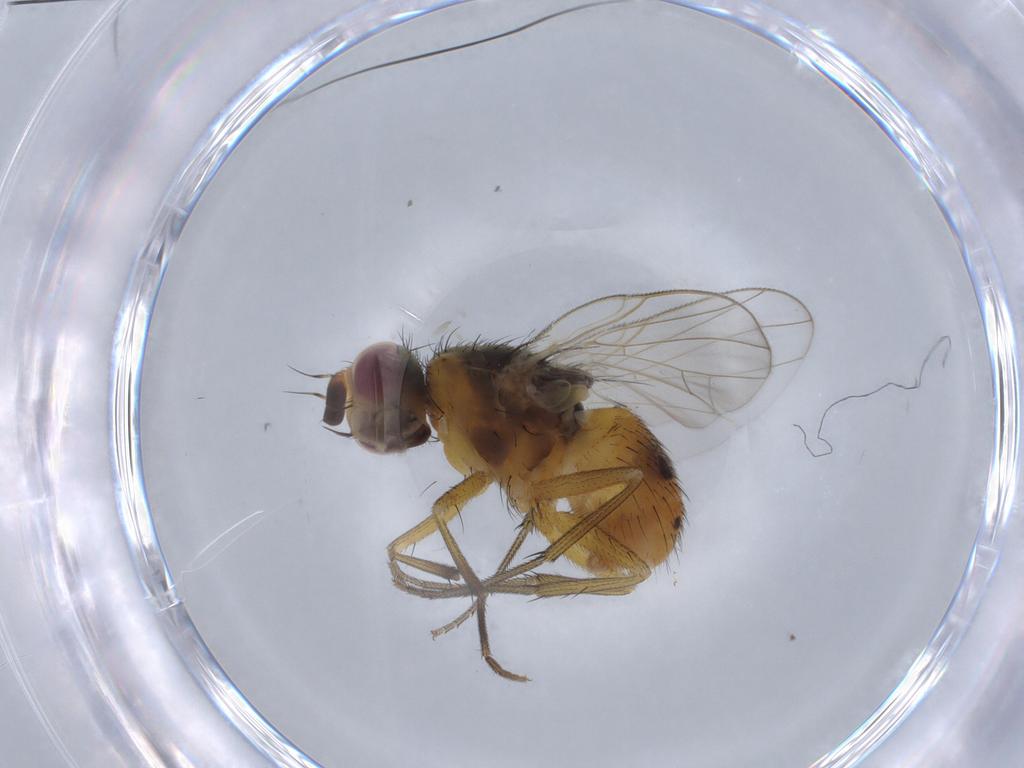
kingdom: Animalia
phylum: Arthropoda
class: Insecta
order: Diptera
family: Muscidae
